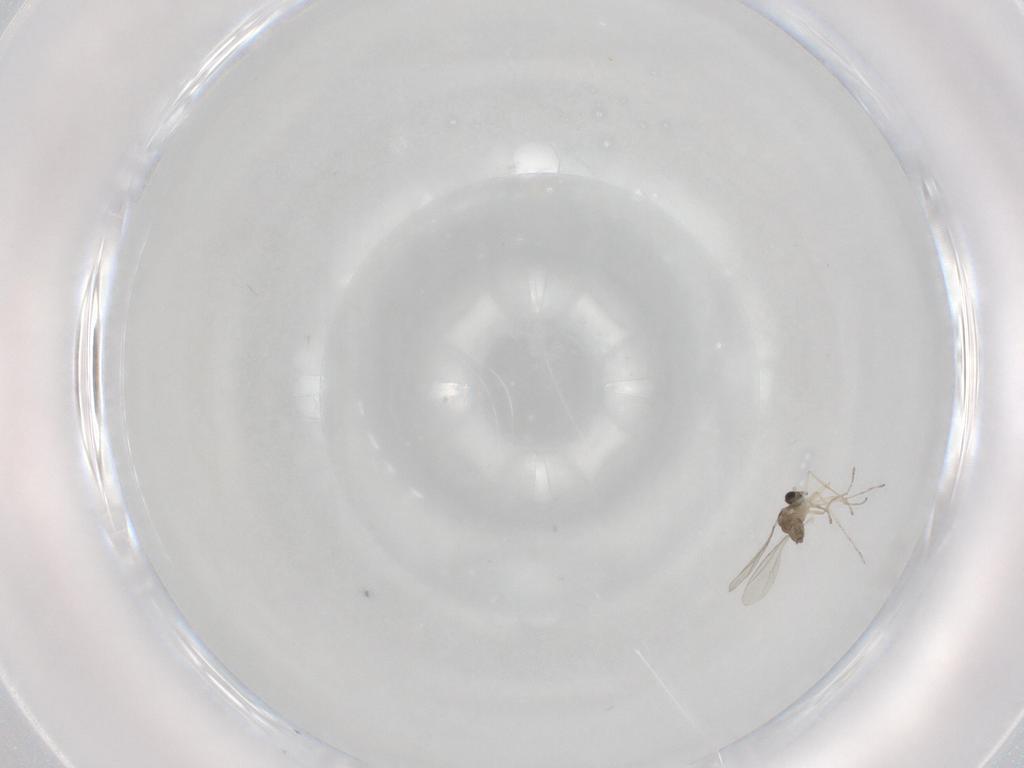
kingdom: Animalia
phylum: Arthropoda
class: Insecta
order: Diptera
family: Cecidomyiidae
